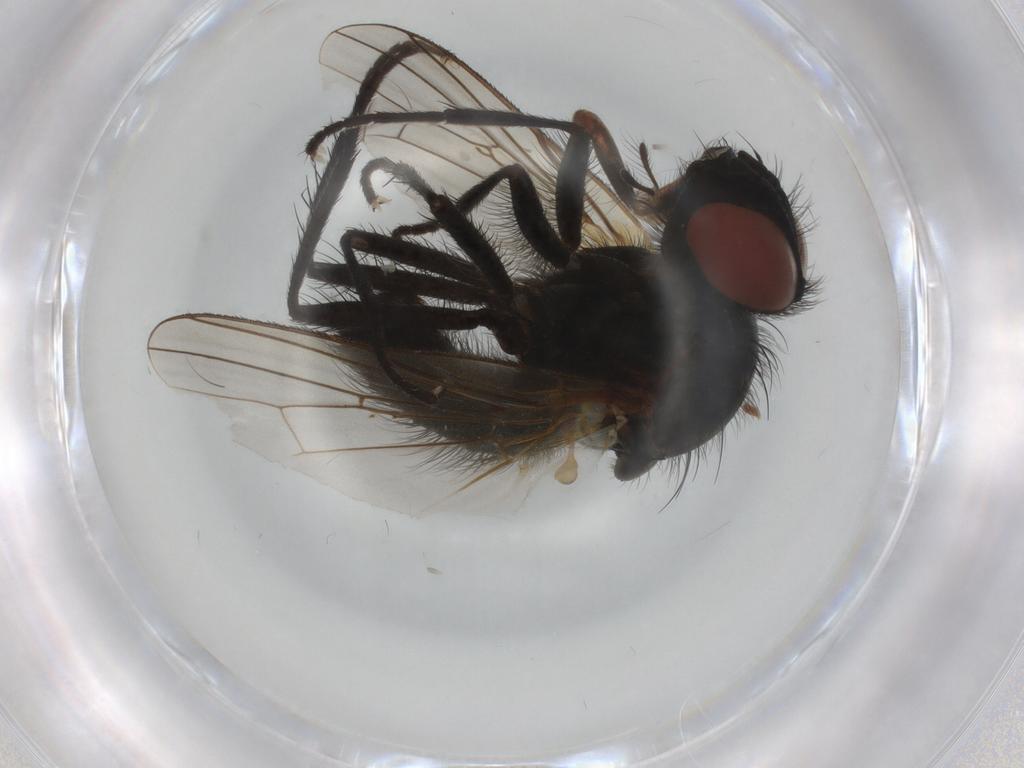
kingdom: Animalia
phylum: Arthropoda
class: Insecta
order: Diptera
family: Anthomyiidae
